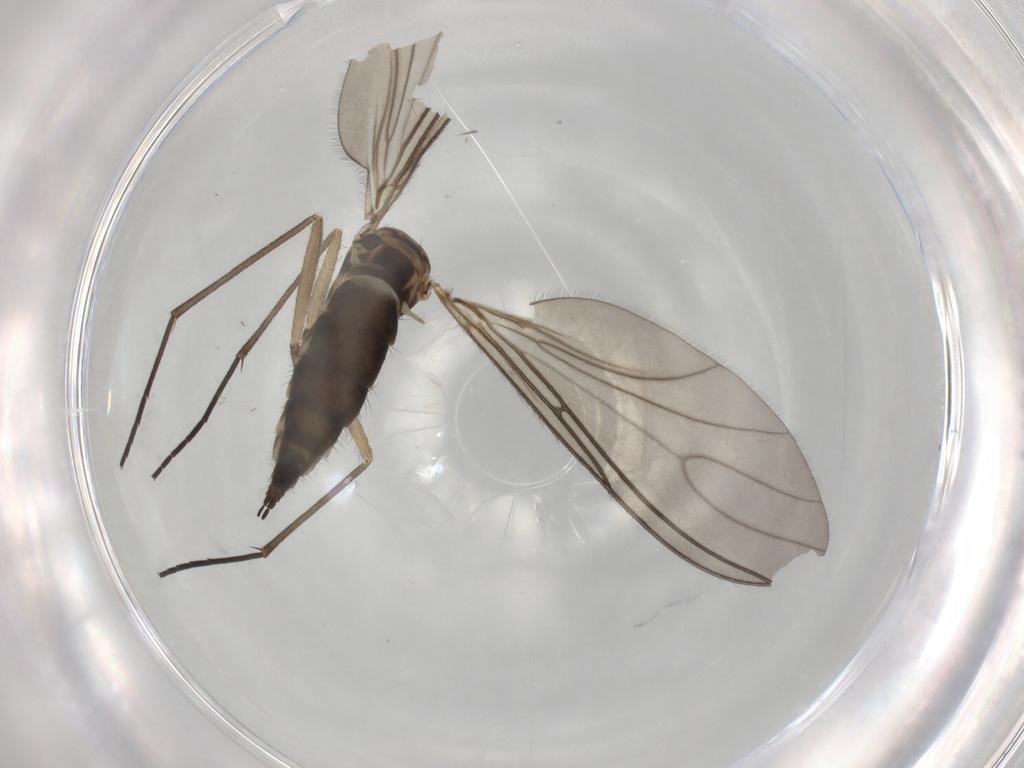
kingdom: Animalia
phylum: Arthropoda
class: Insecta
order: Diptera
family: Sciaridae
